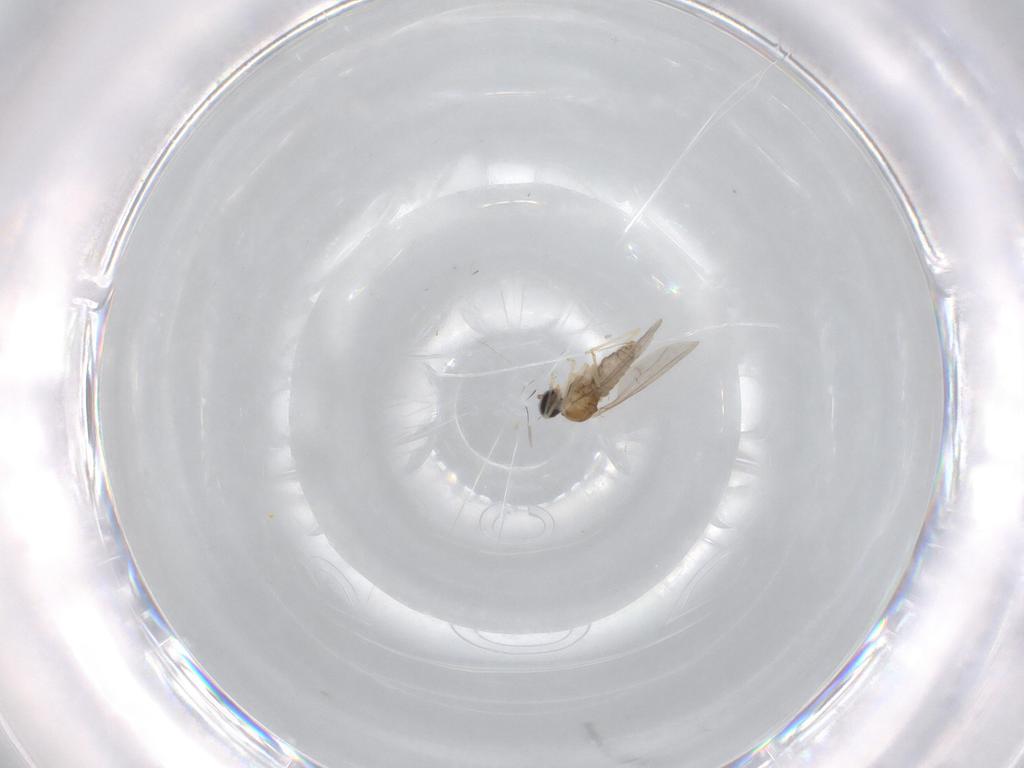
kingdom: Animalia
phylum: Arthropoda
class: Insecta
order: Diptera
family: Cecidomyiidae
